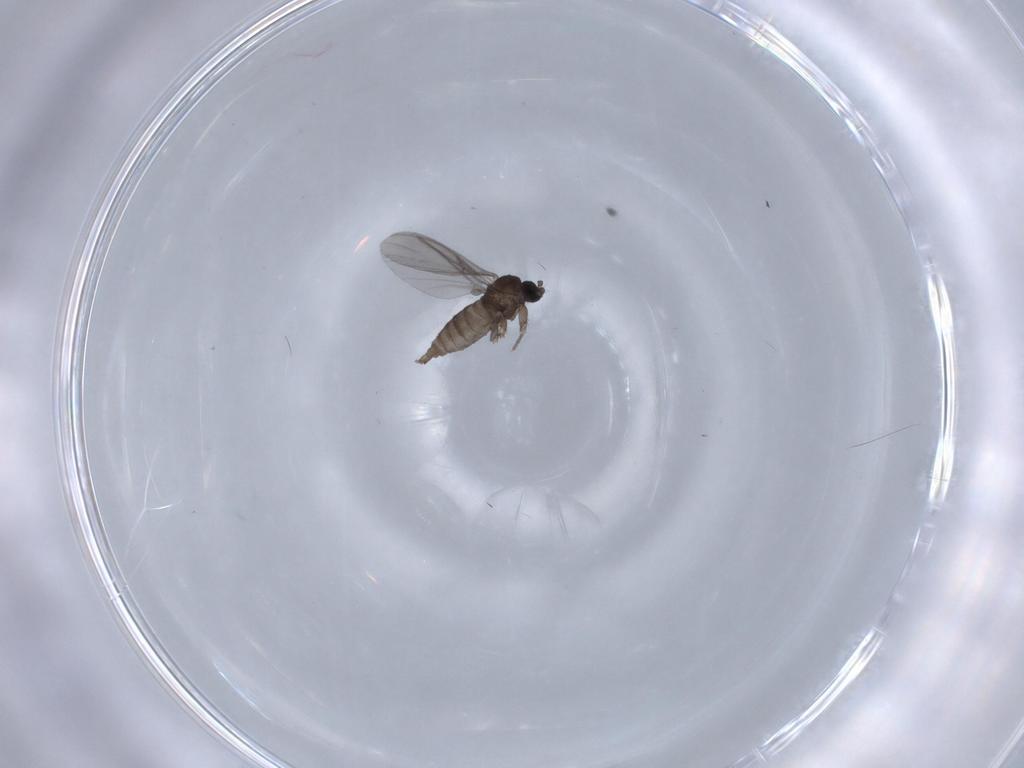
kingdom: Animalia
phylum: Arthropoda
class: Insecta
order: Diptera
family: Sciaridae
